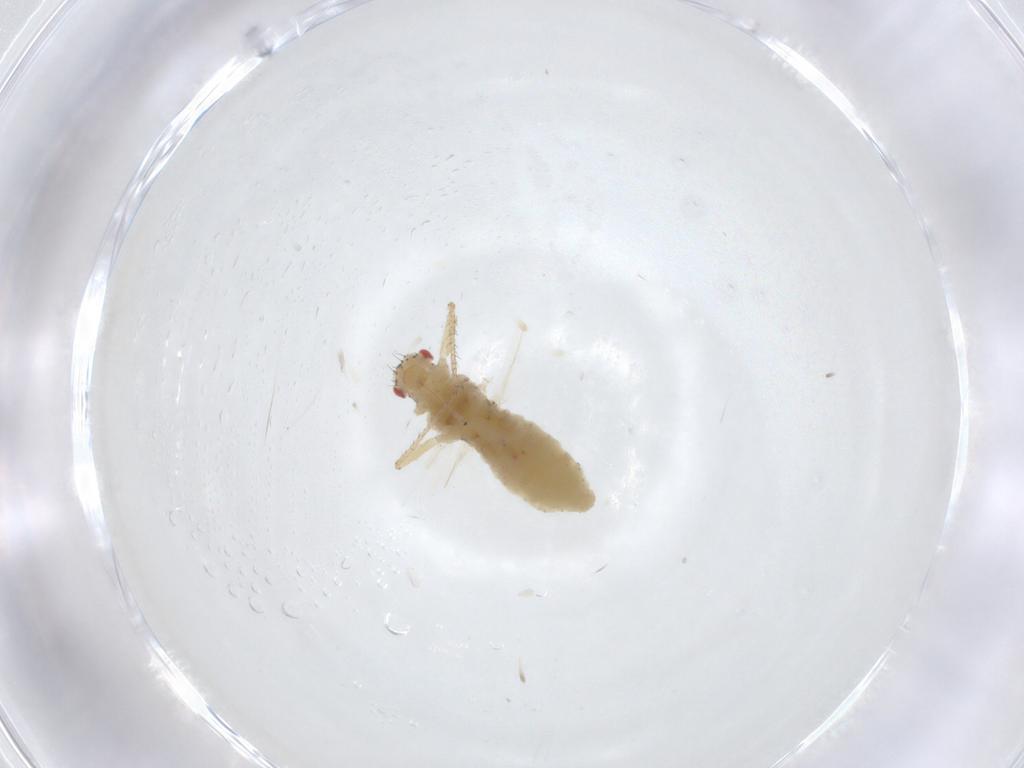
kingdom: Animalia
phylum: Arthropoda
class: Insecta
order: Hemiptera
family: Aphididae
